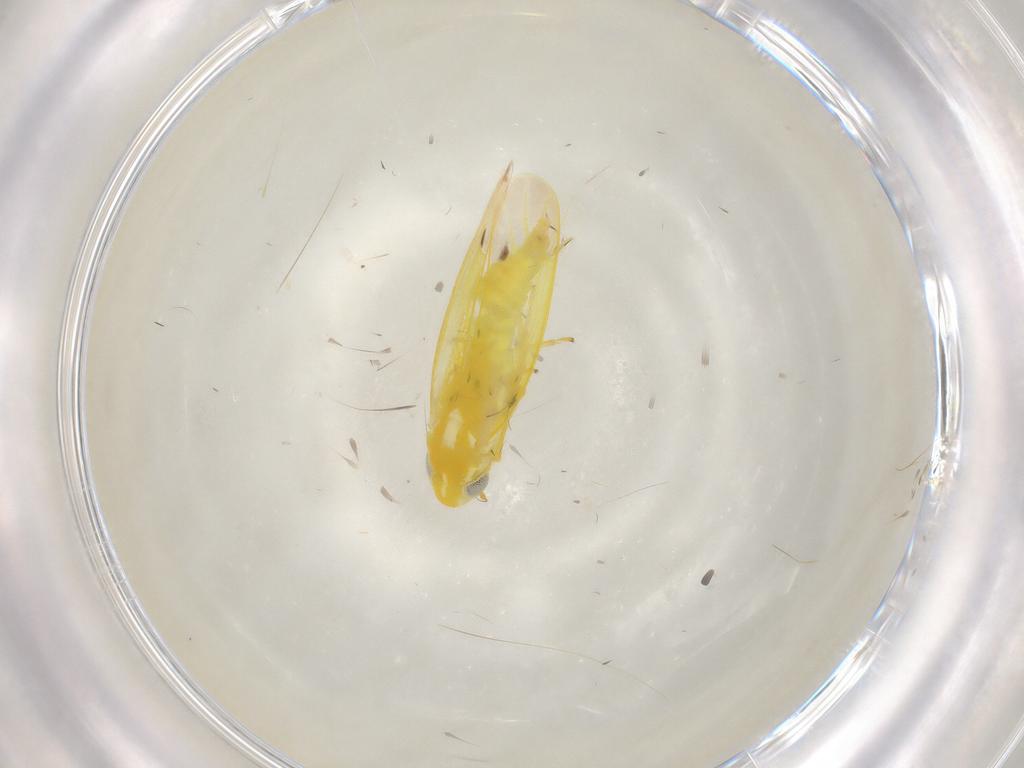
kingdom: Animalia
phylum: Arthropoda
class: Insecta
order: Hemiptera
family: Cicadellidae
